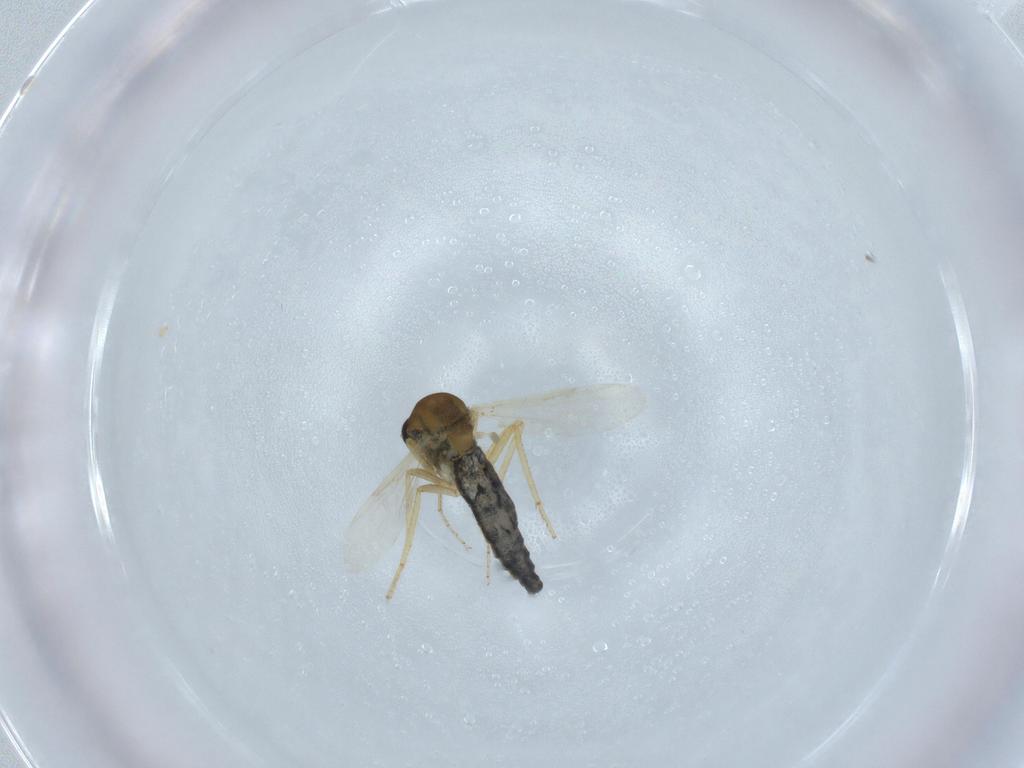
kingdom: Animalia
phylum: Arthropoda
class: Insecta
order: Diptera
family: Ceratopogonidae
